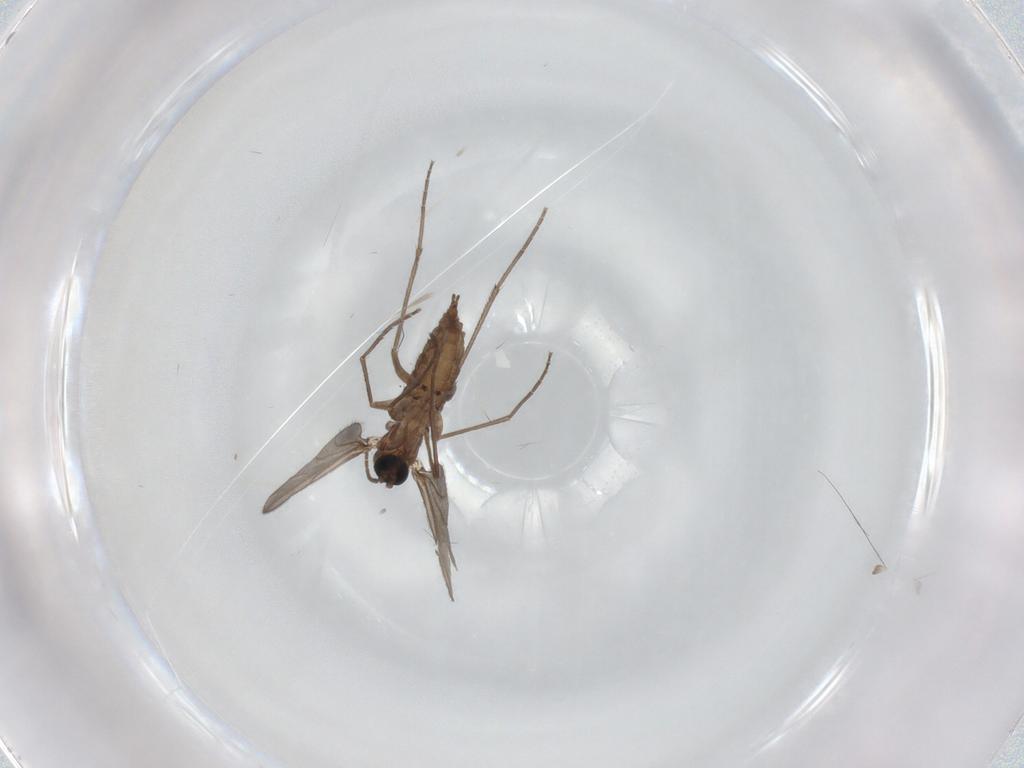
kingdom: Animalia
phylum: Arthropoda
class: Insecta
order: Diptera
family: Sciaridae
